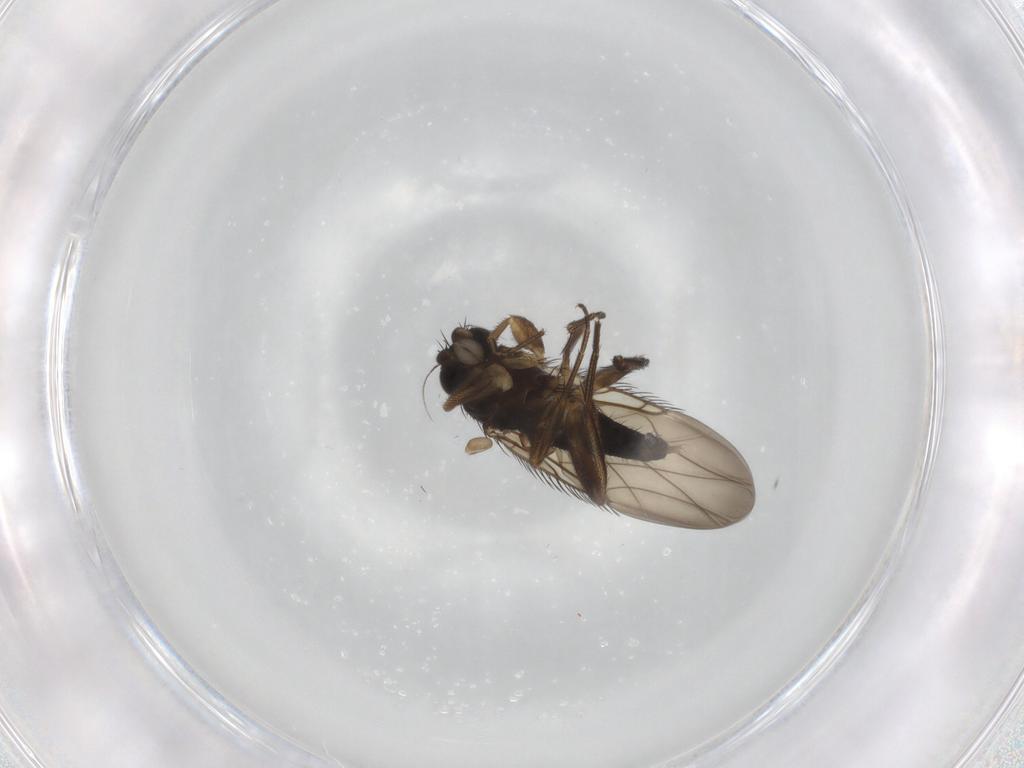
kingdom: Animalia
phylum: Arthropoda
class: Insecta
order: Diptera
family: Phoridae
